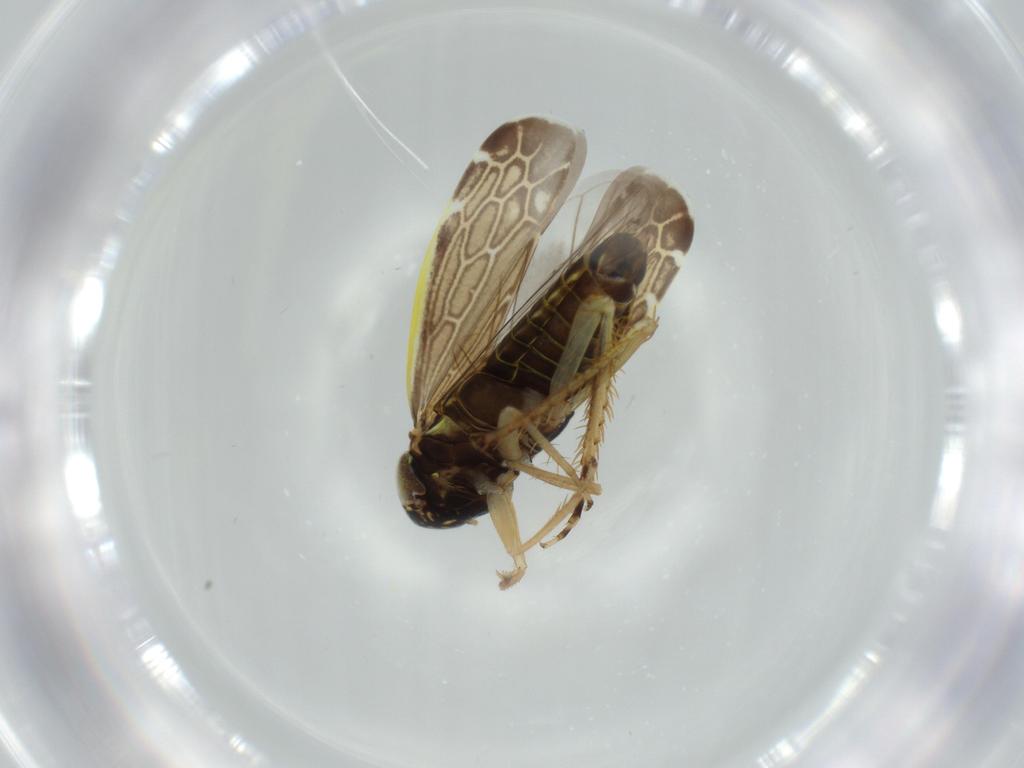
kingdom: Animalia
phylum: Arthropoda
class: Insecta
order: Hemiptera
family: Cicadellidae
